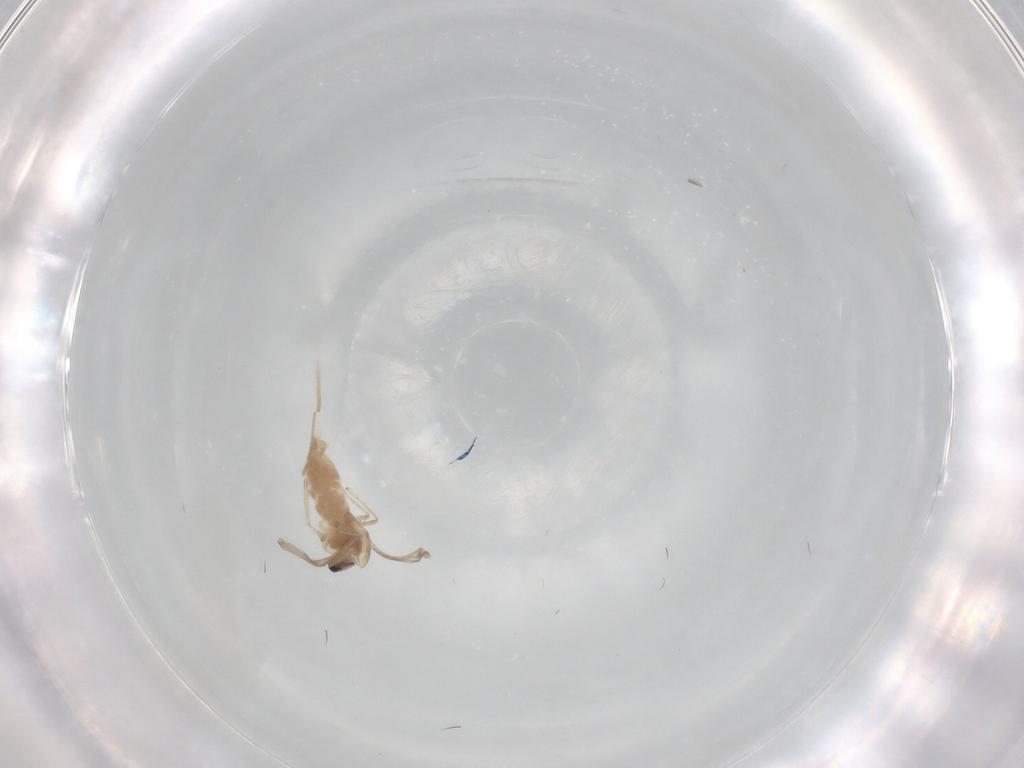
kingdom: Animalia
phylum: Arthropoda
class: Insecta
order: Diptera
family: Chironomidae
